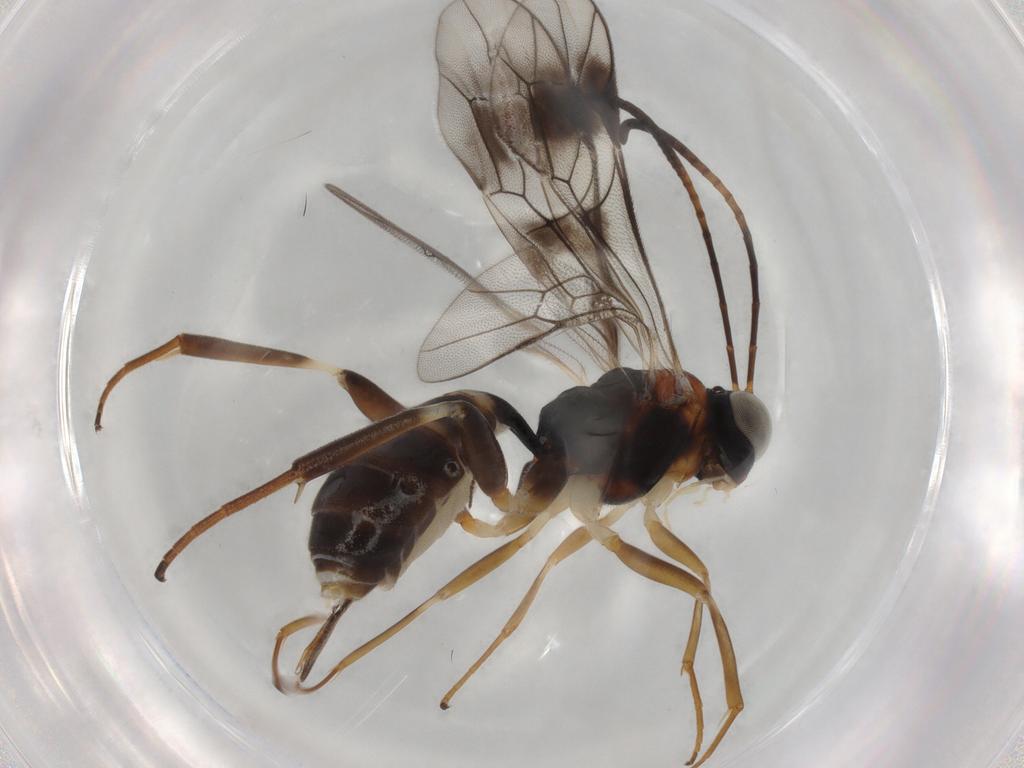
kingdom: Animalia
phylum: Arthropoda
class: Insecta
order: Hymenoptera
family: Ichneumonidae
